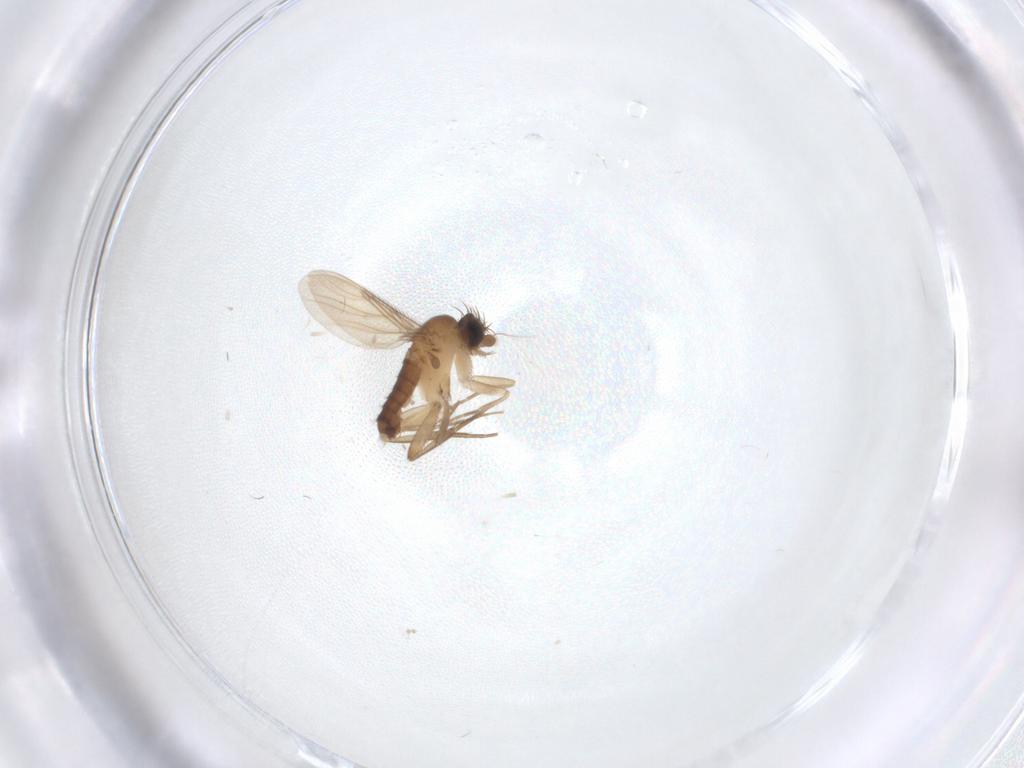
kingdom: Animalia
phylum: Arthropoda
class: Insecta
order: Diptera
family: Phoridae
